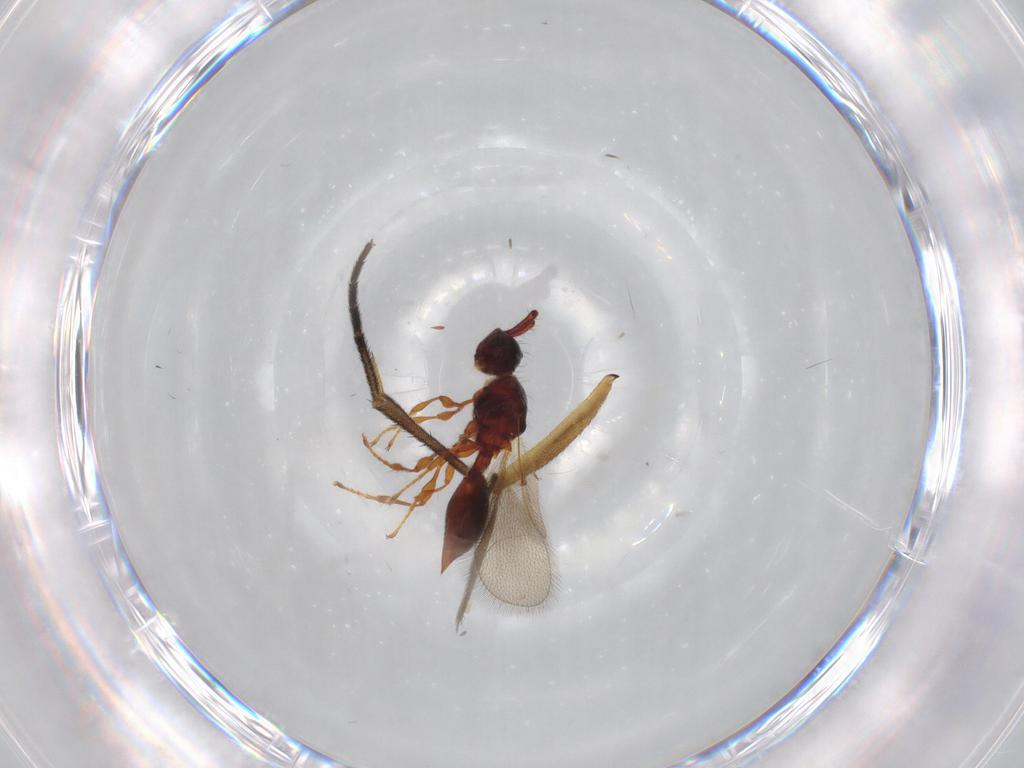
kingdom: Animalia
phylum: Arthropoda
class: Insecta
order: Hymenoptera
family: Diapriidae
